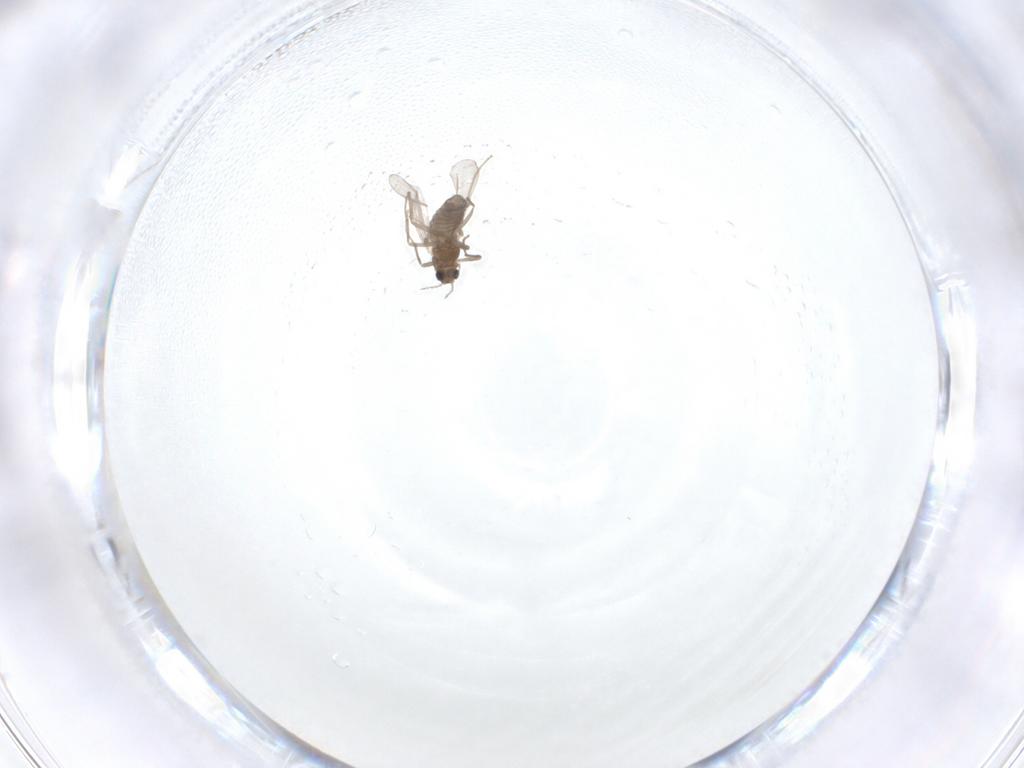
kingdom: Animalia
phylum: Arthropoda
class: Insecta
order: Diptera
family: Chironomidae
